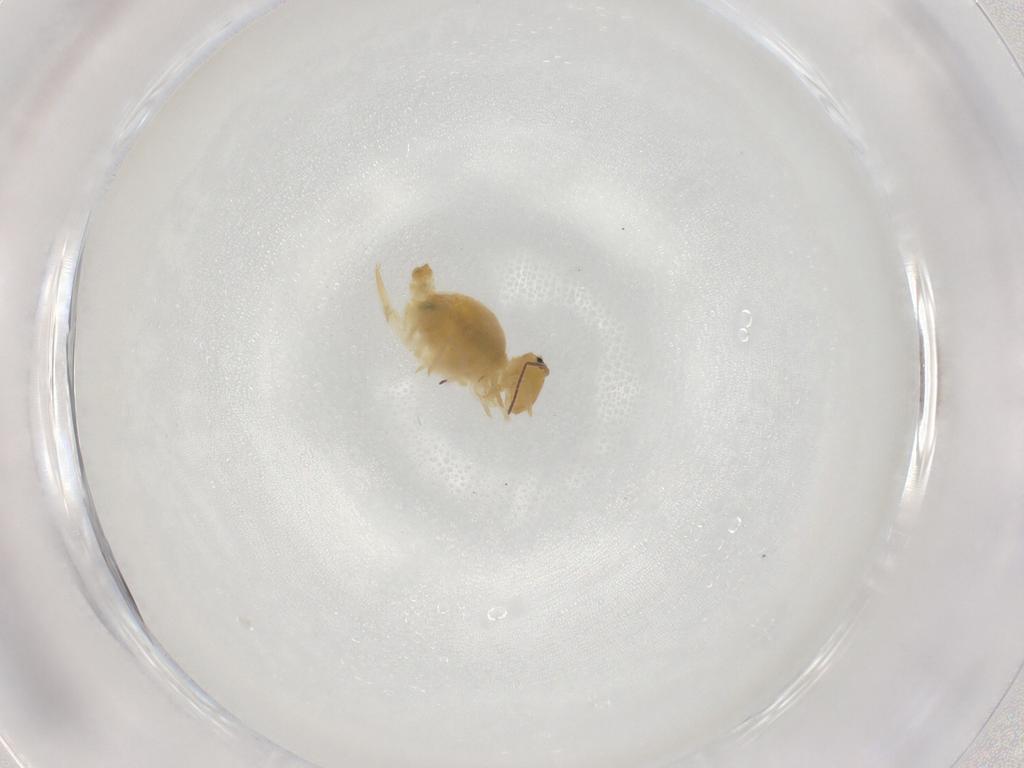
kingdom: Animalia
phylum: Arthropoda
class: Collembola
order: Symphypleona
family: Bourletiellidae
